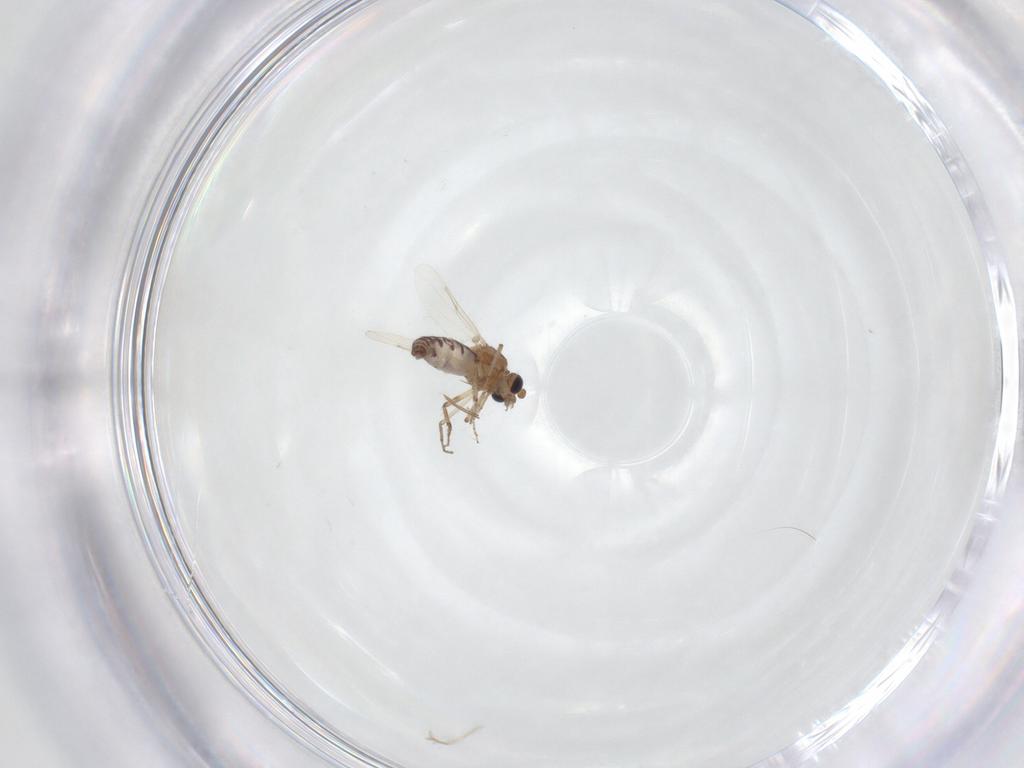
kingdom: Animalia
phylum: Arthropoda
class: Insecta
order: Diptera
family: Ceratopogonidae
